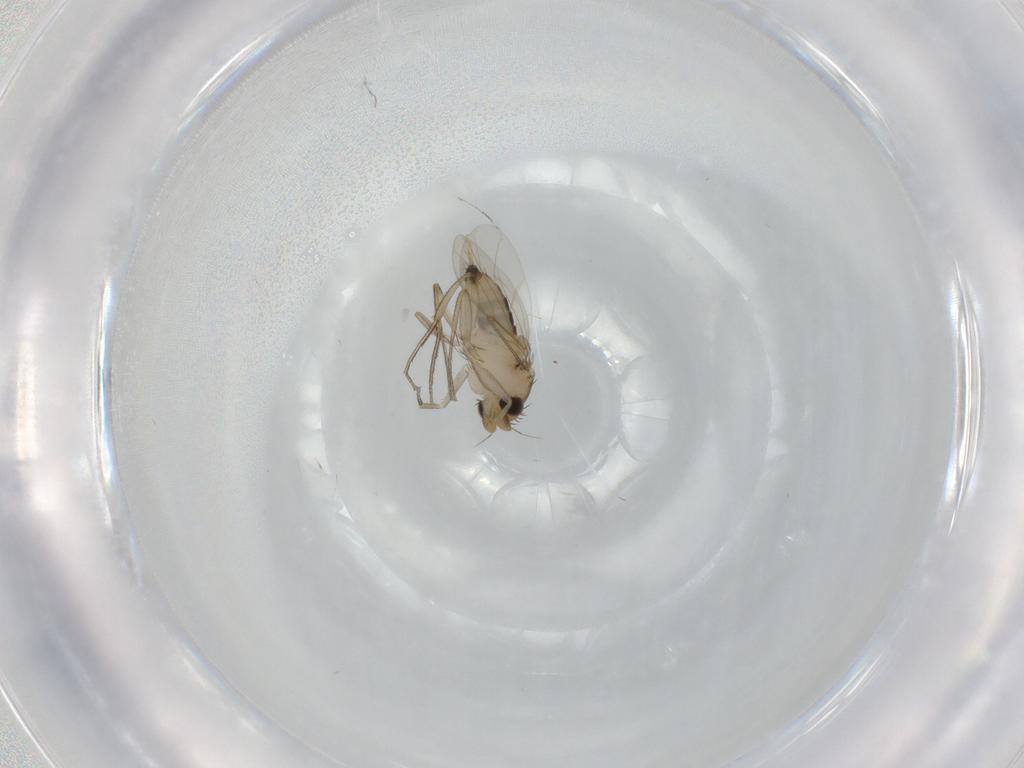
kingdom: Animalia
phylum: Arthropoda
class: Insecta
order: Diptera
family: Phoridae
